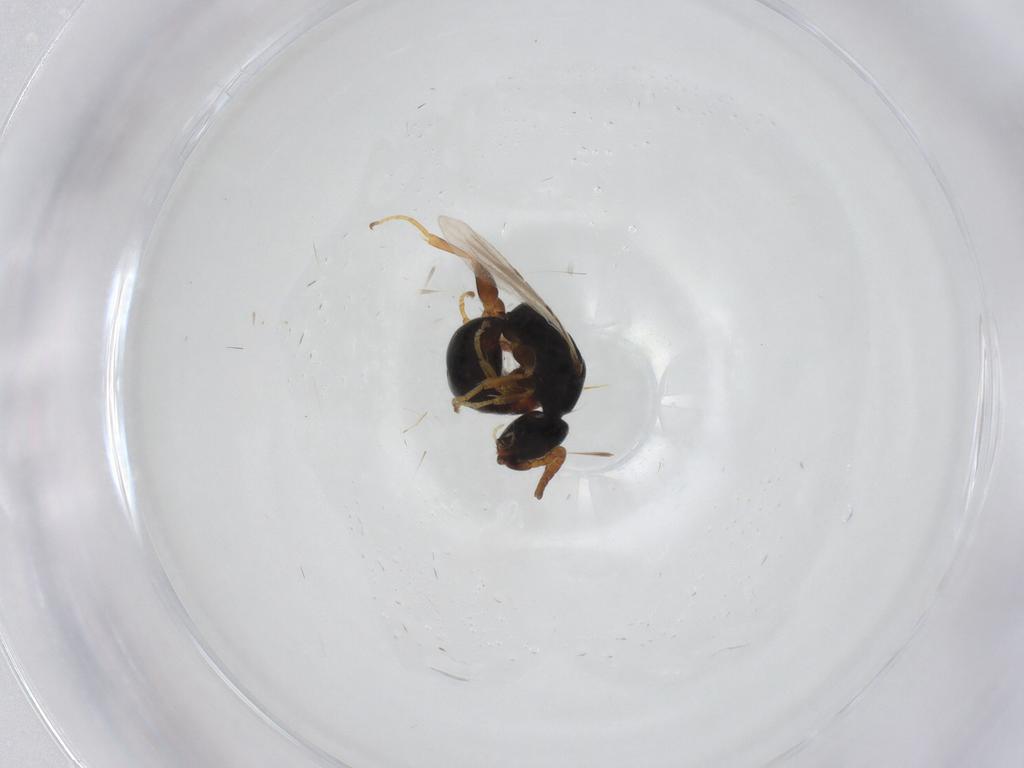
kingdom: Animalia
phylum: Arthropoda
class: Insecta
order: Hymenoptera
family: Bethylidae
